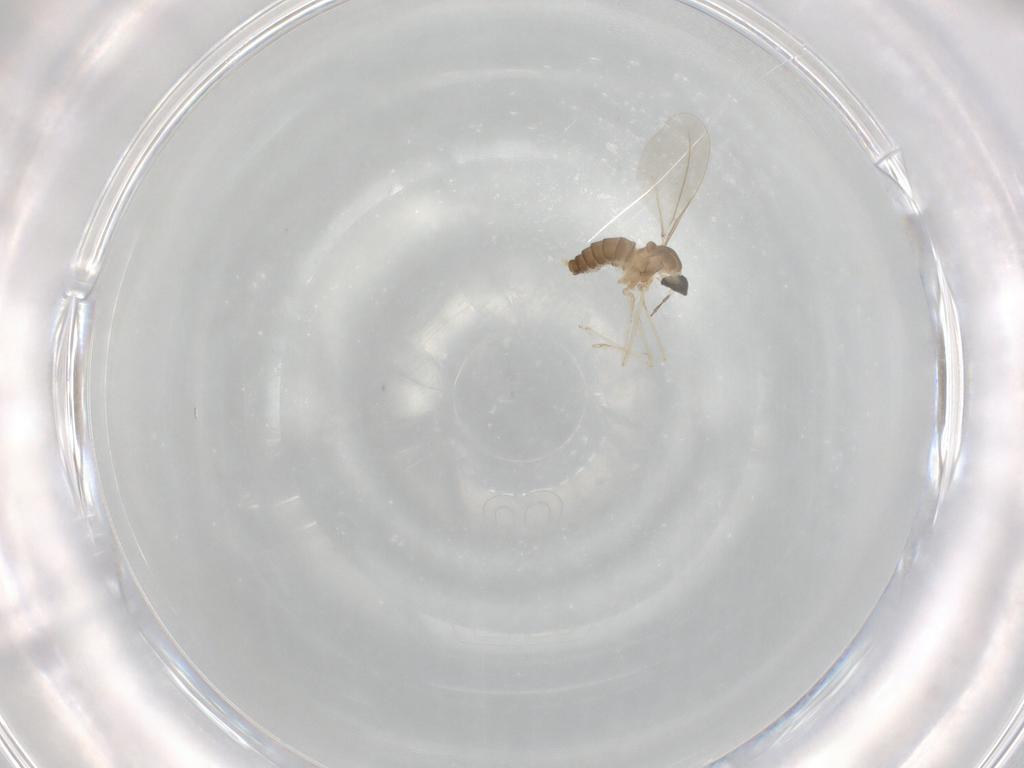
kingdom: Animalia
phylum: Arthropoda
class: Insecta
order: Diptera
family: Cecidomyiidae
